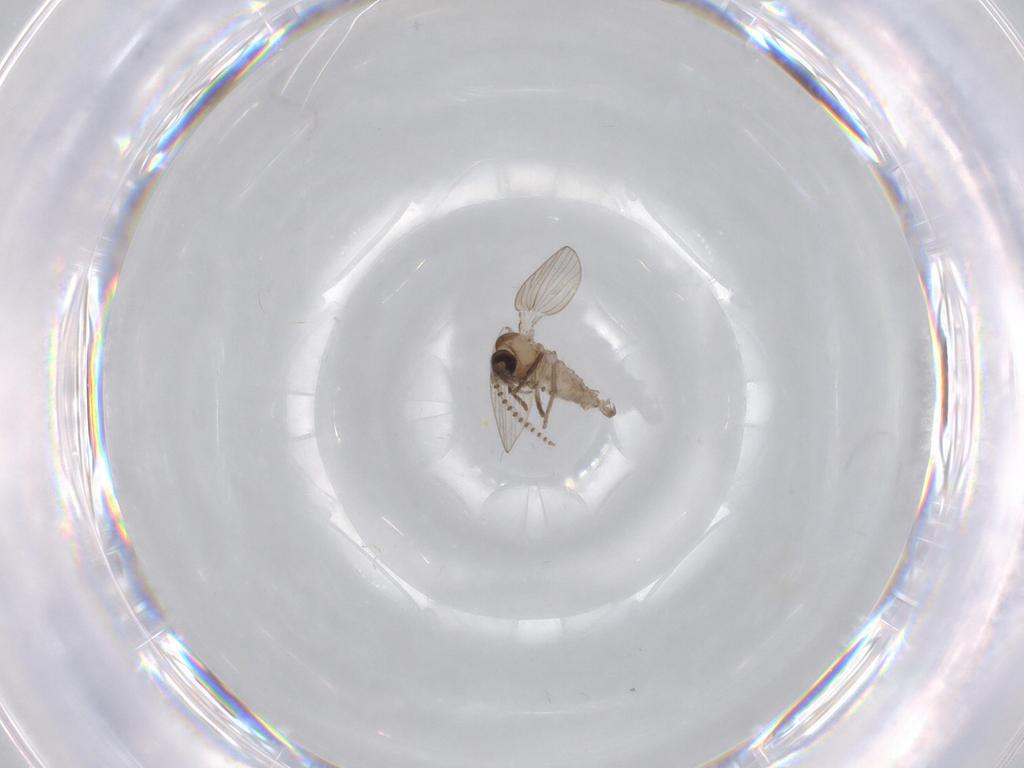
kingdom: Animalia
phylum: Arthropoda
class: Insecta
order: Diptera
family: Psychodidae
